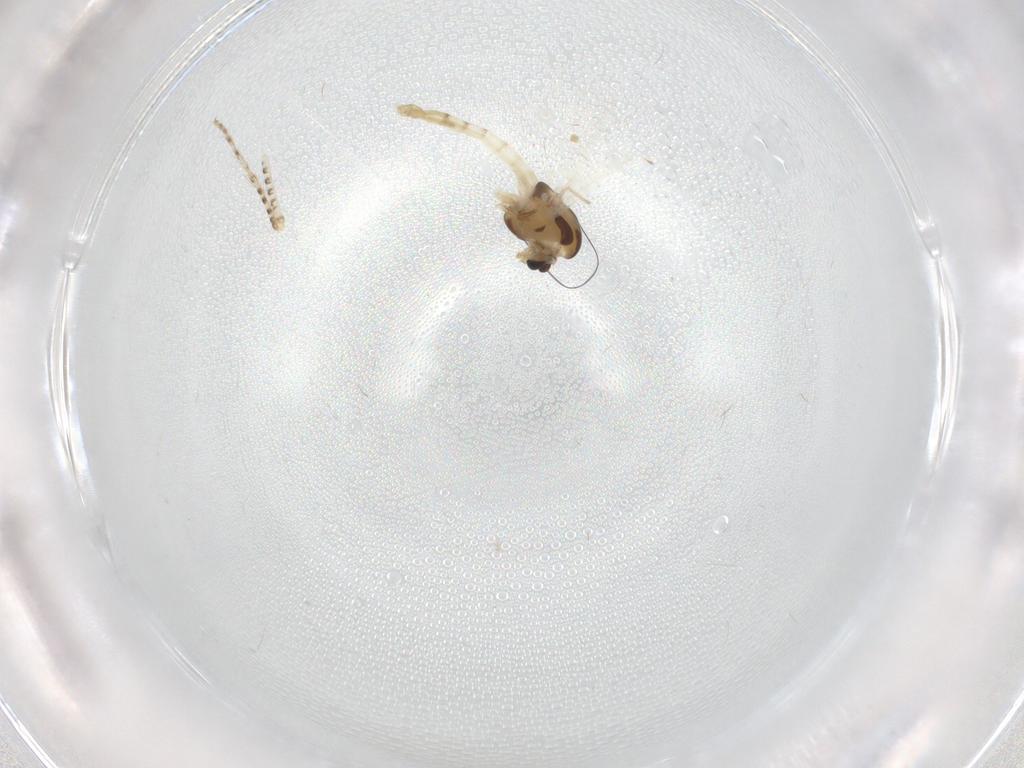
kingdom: Animalia
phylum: Arthropoda
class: Insecta
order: Diptera
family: Chironomidae
